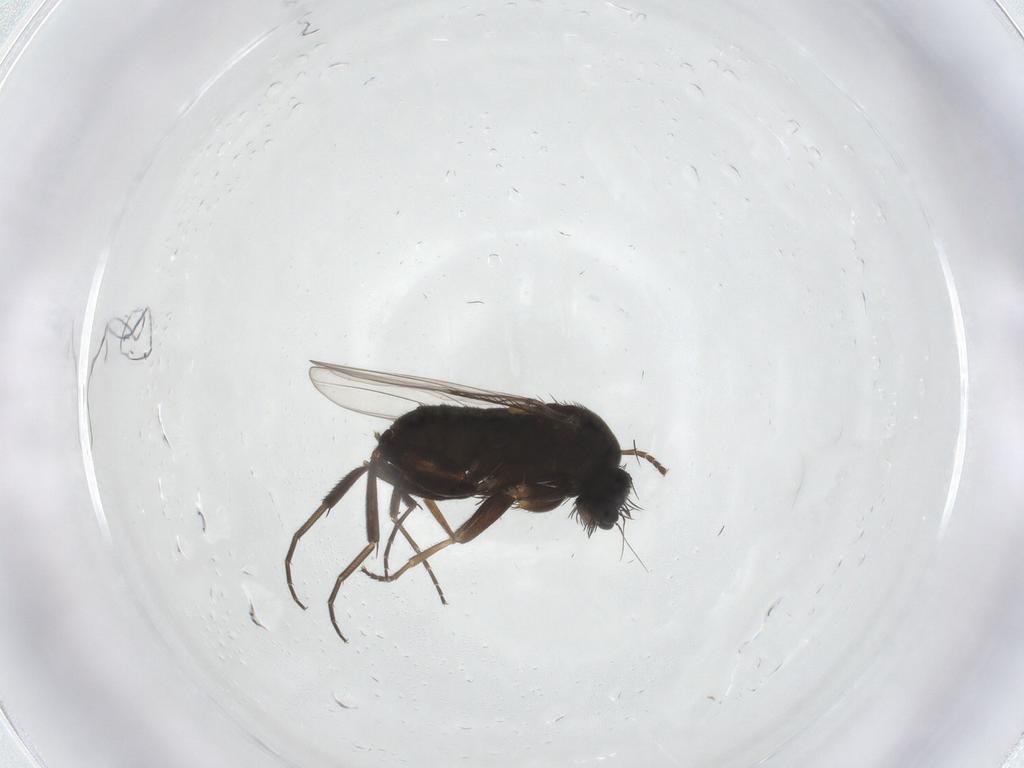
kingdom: Animalia
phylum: Arthropoda
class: Insecta
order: Diptera
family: Phoridae
